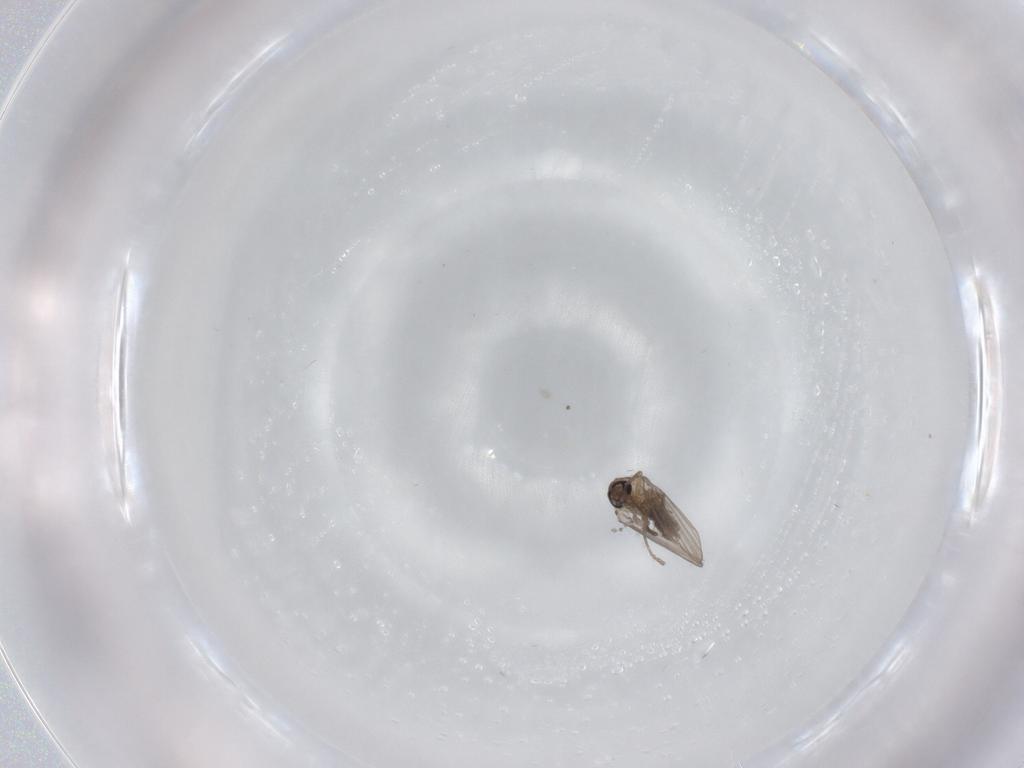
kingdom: Animalia
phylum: Arthropoda
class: Insecta
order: Diptera
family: Psychodidae
